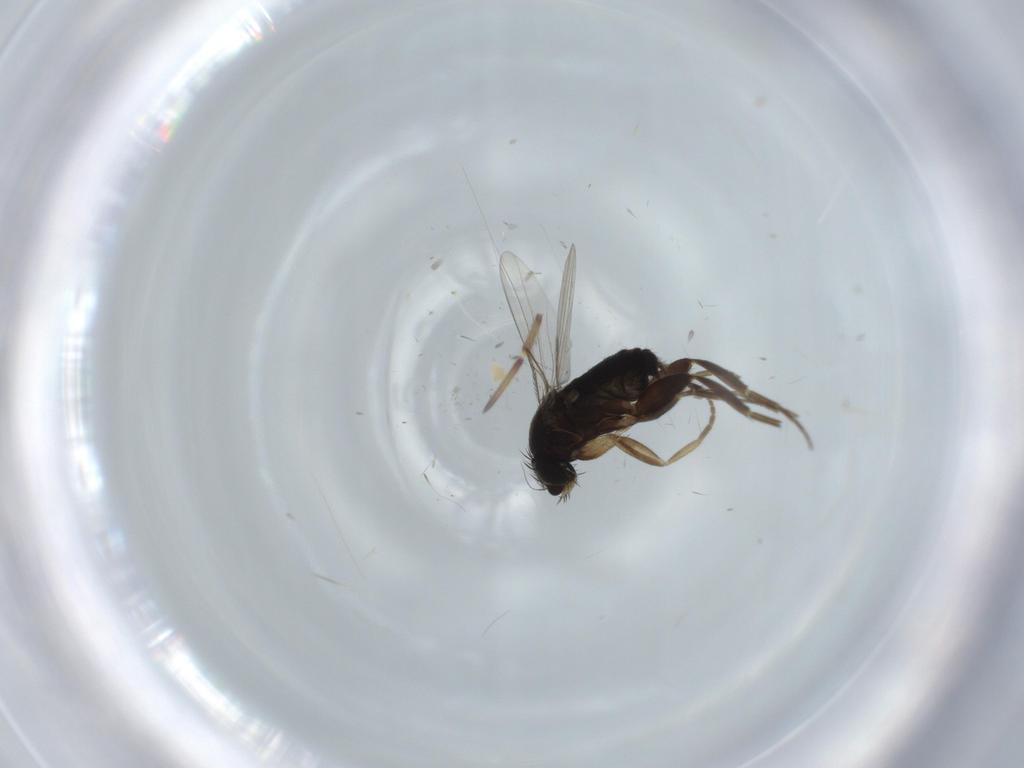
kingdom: Animalia
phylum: Arthropoda
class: Insecta
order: Diptera
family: Phoridae
